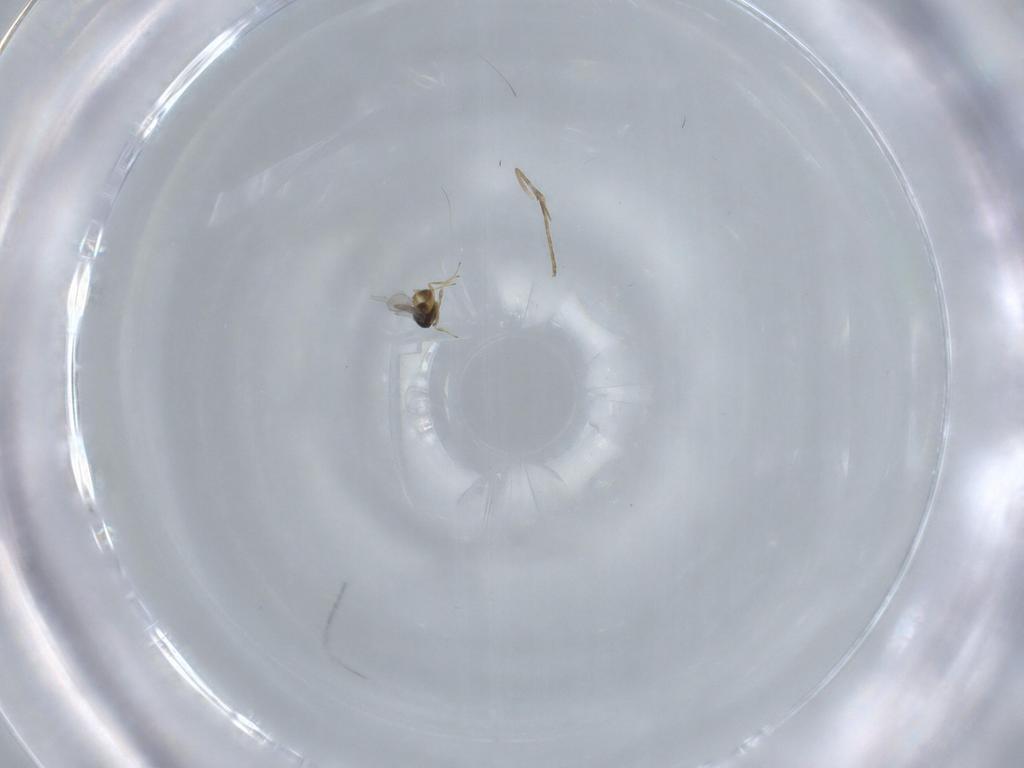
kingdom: Animalia
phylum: Arthropoda
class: Insecta
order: Hymenoptera
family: Scelionidae
